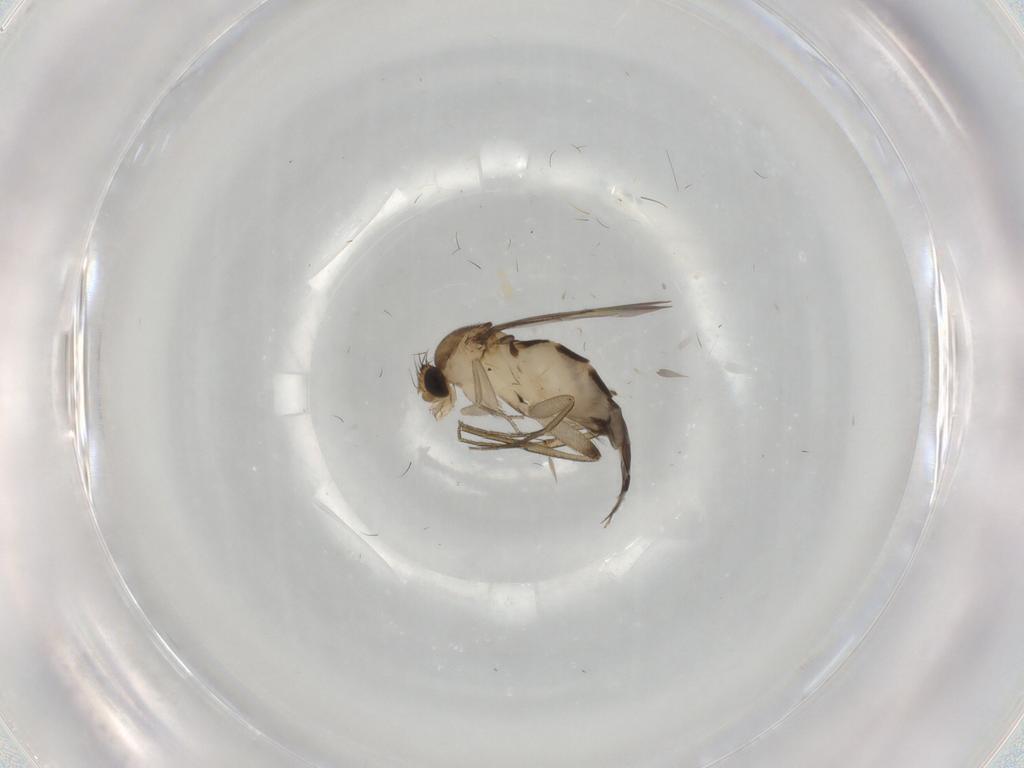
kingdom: Animalia
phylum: Arthropoda
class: Insecta
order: Diptera
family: Phoridae
